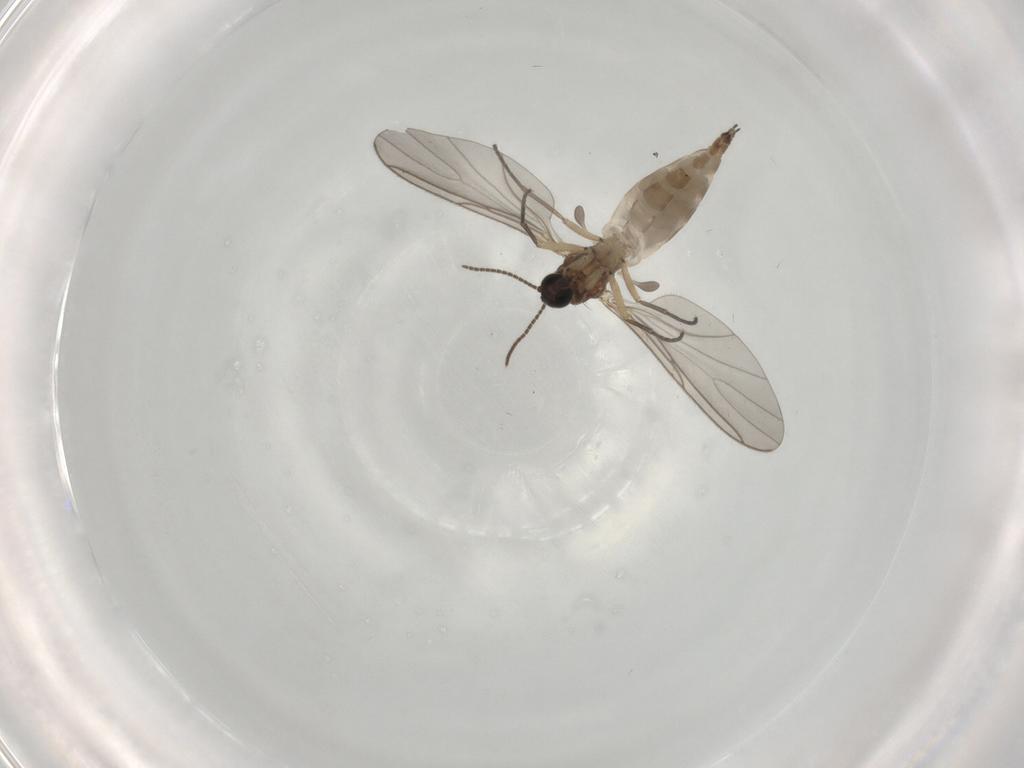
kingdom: Animalia
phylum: Arthropoda
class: Insecta
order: Diptera
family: Sciaridae
